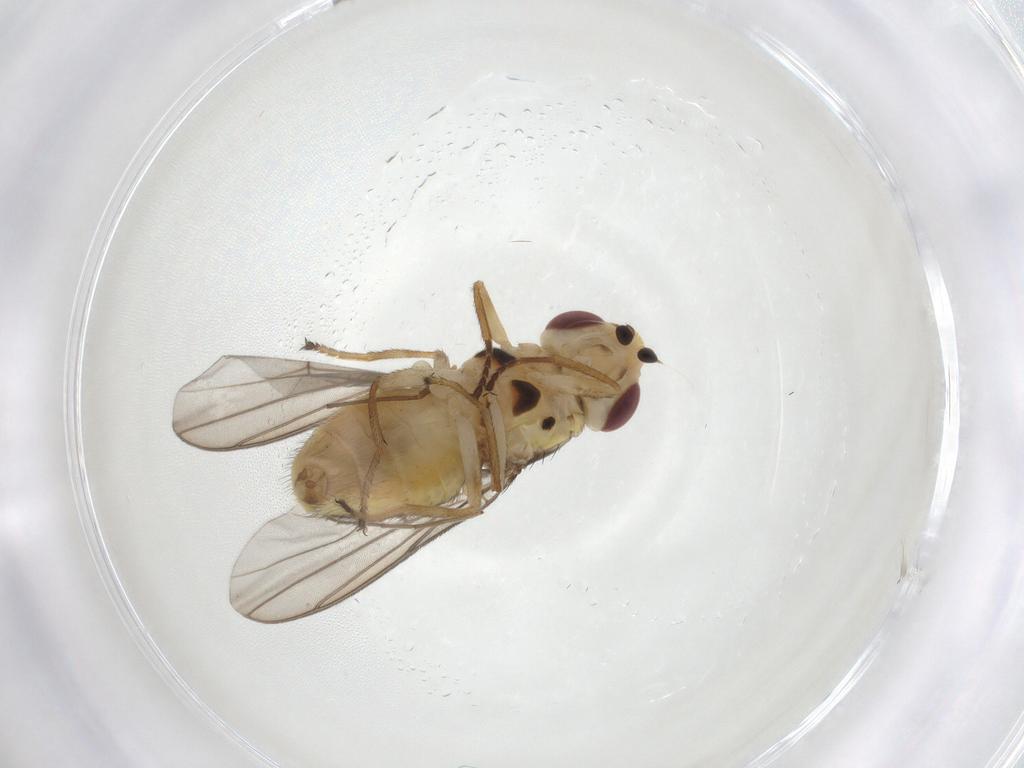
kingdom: Animalia
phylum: Arthropoda
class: Insecta
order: Diptera
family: Chloropidae
